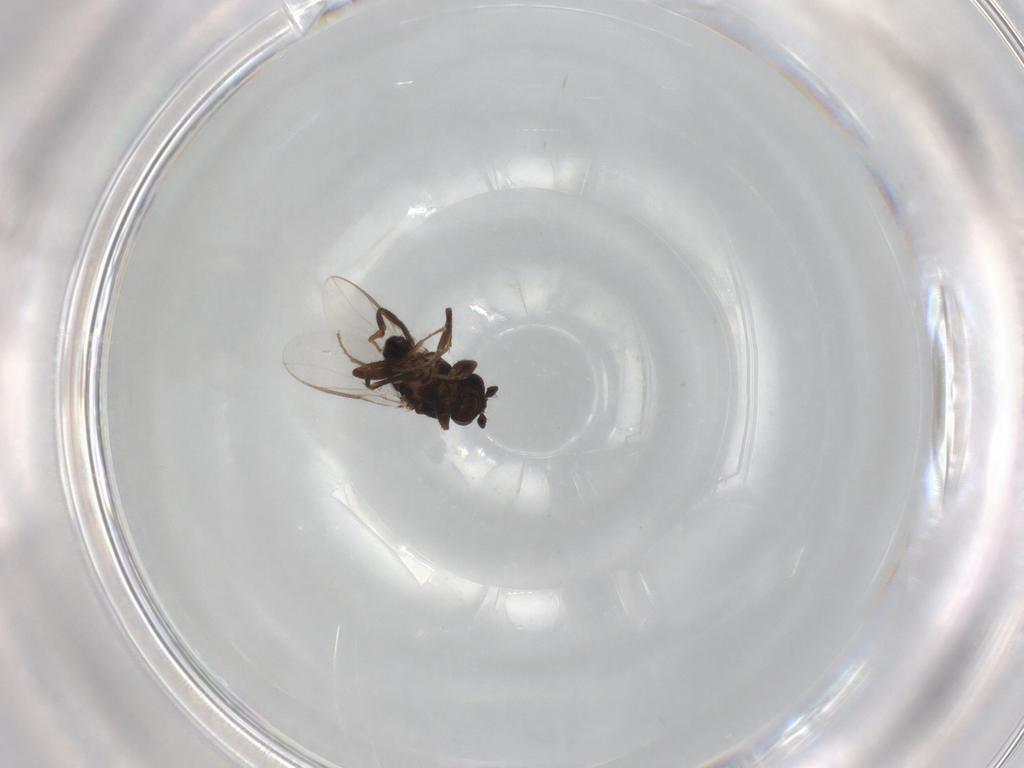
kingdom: Animalia
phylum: Arthropoda
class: Insecta
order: Diptera
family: Sphaeroceridae
